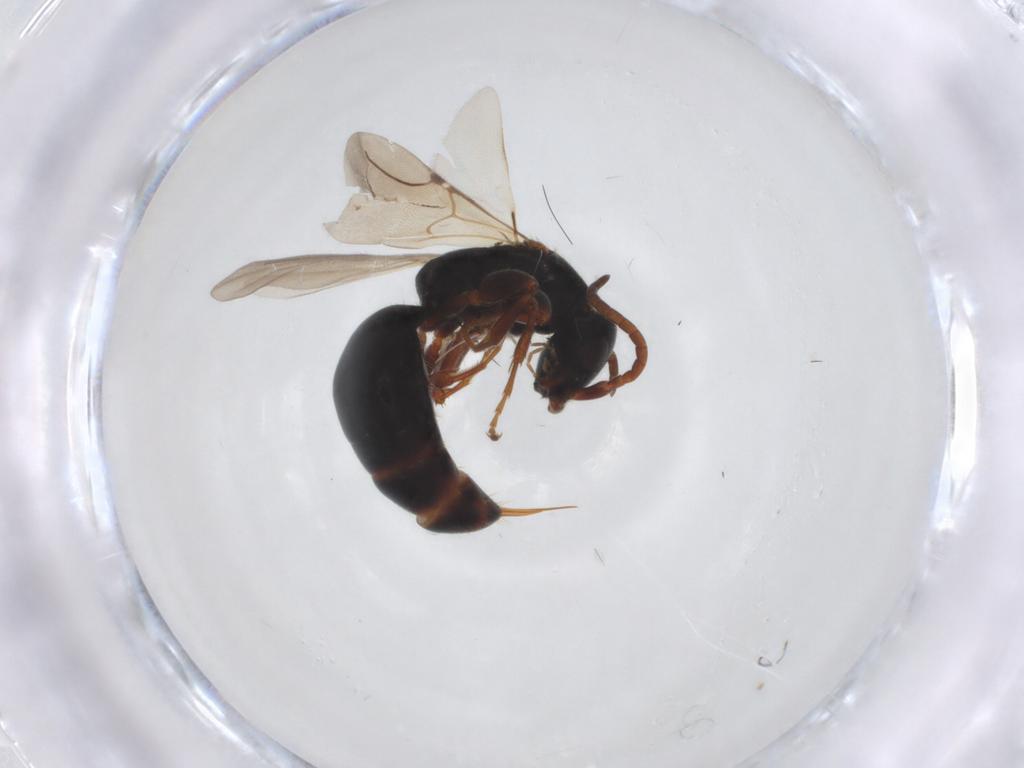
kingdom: Animalia
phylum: Arthropoda
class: Insecta
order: Hymenoptera
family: Bethylidae
